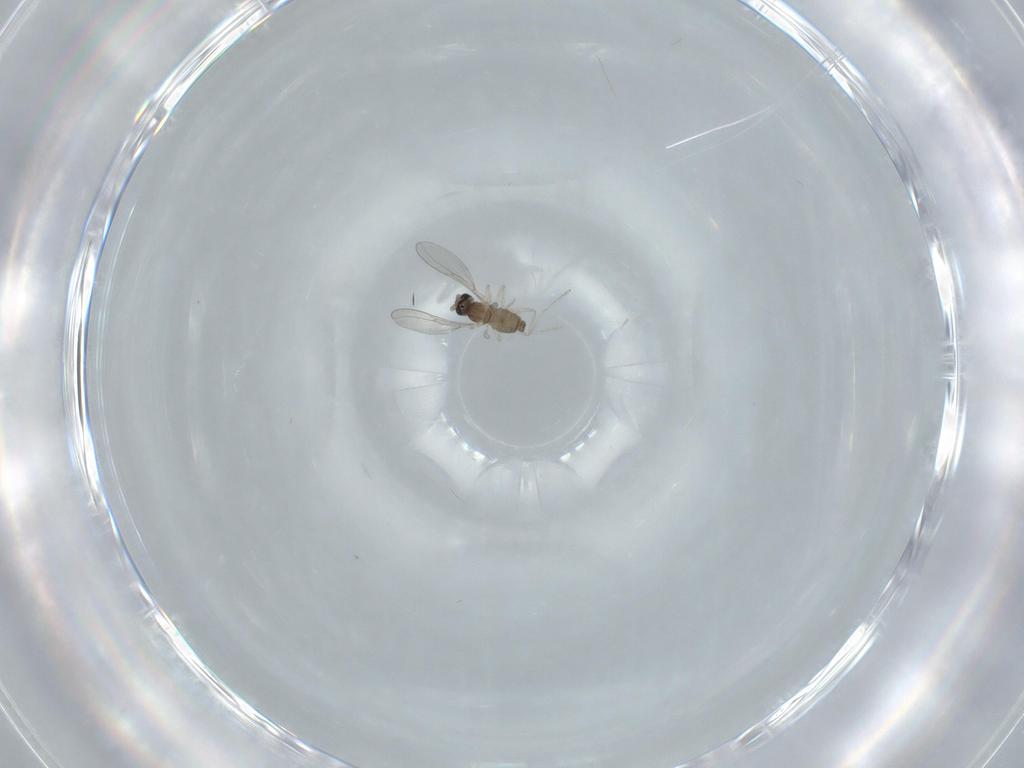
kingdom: Animalia
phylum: Arthropoda
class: Insecta
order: Diptera
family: Cecidomyiidae
